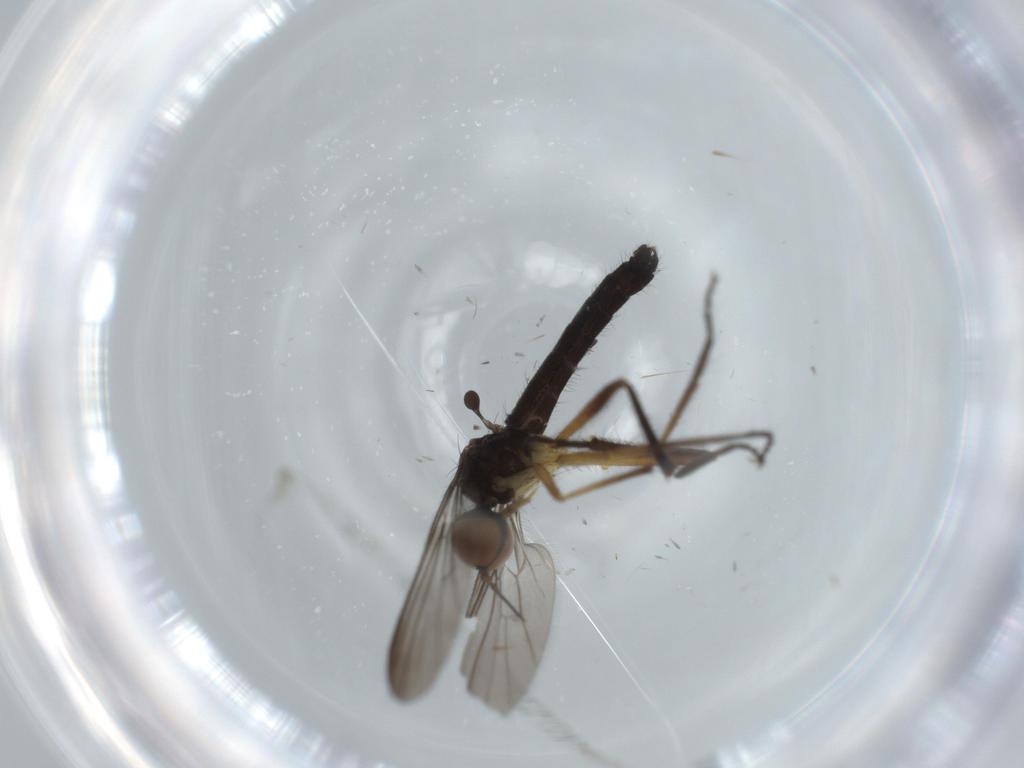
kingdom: Animalia
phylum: Arthropoda
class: Insecta
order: Diptera
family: Empididae
